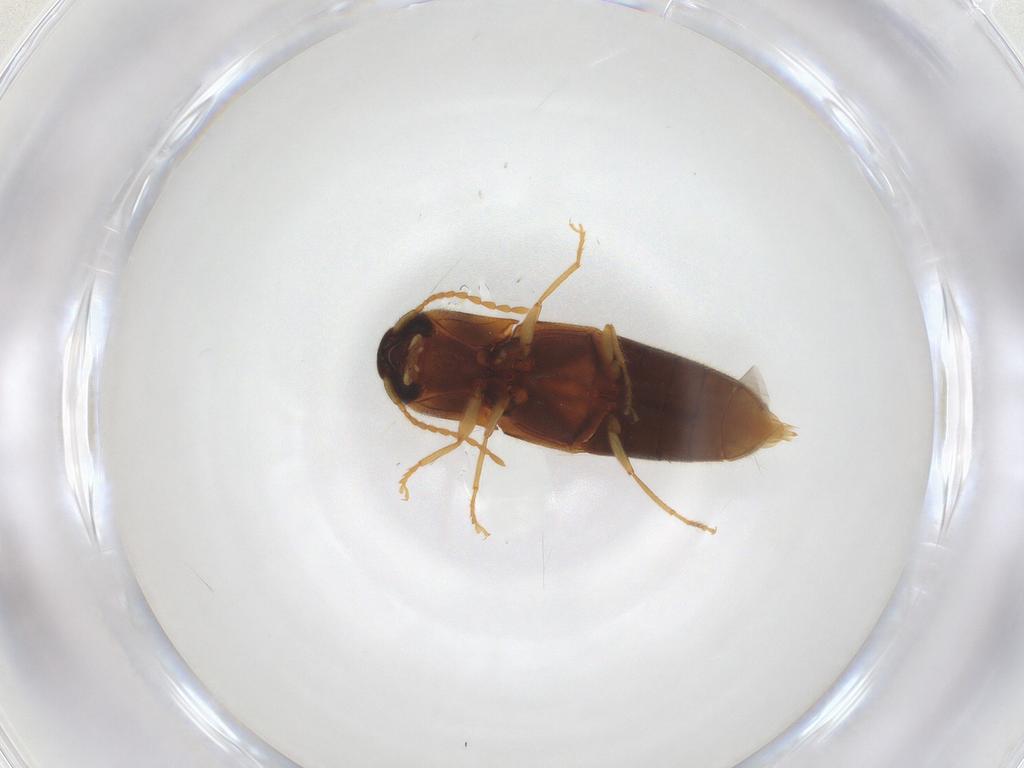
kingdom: Animalia
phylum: Arthropoda
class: Insecta
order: Coleoptera
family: Elateridae
